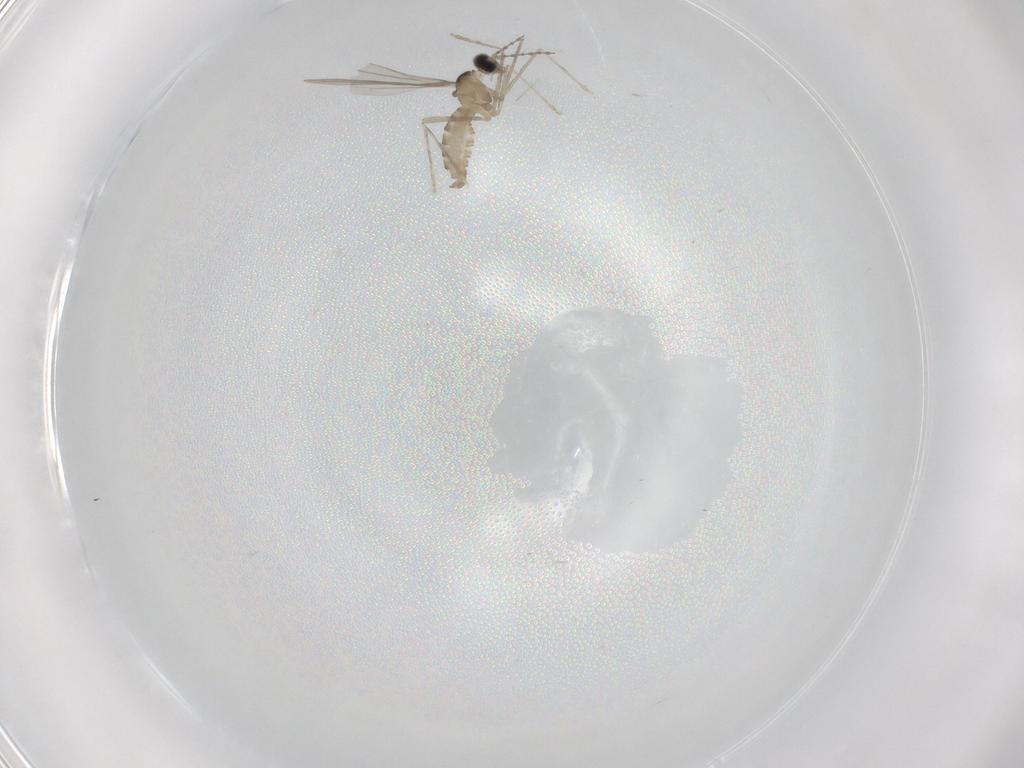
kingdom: Animalia
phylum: Arthropoda
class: Insecta
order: Diptera
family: Cecidomyiidae
